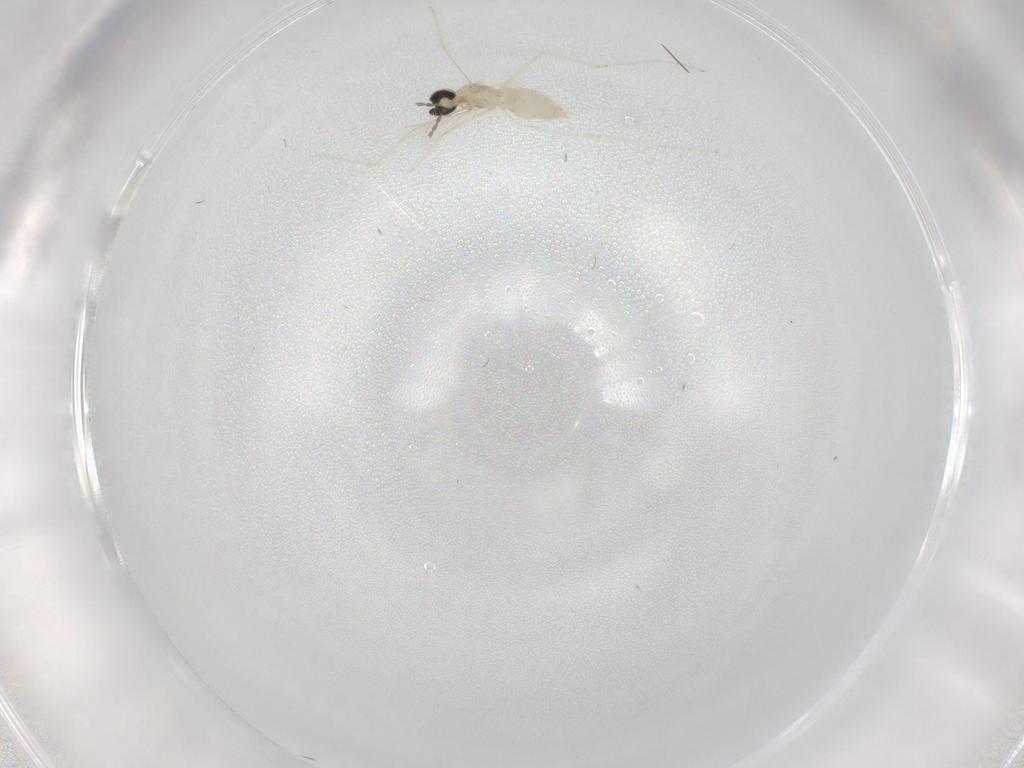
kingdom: Animalia
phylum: Arthropoda
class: Insecta
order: Diptera
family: Cecidomyiidae
